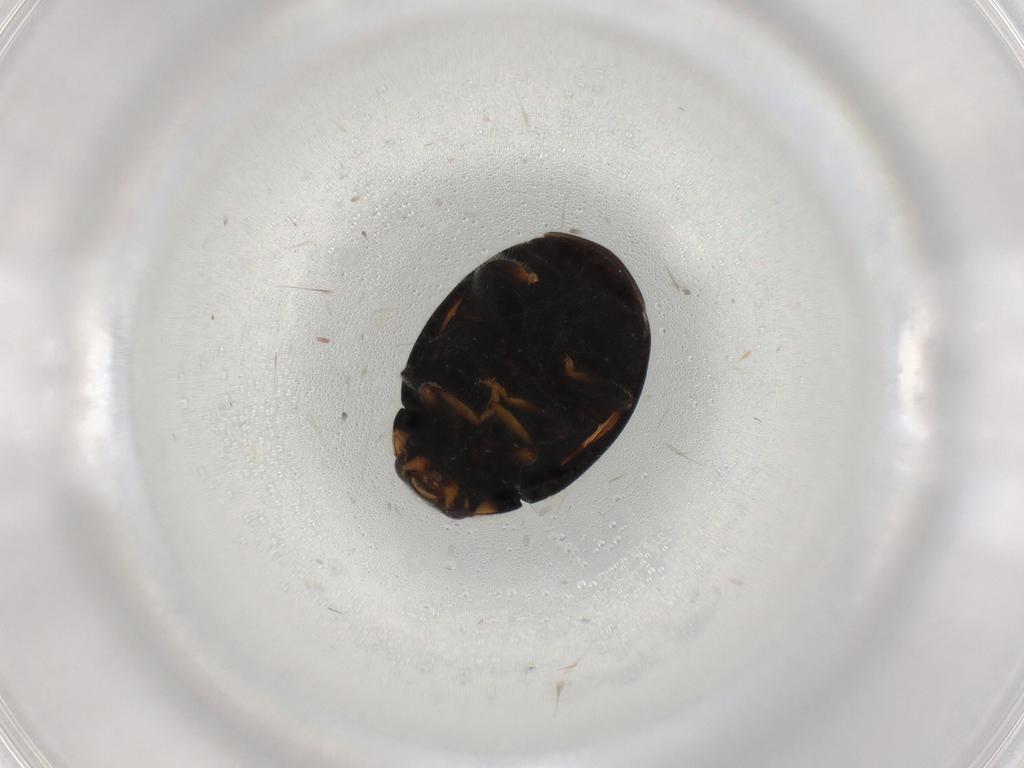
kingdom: Animalia
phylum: Arthropoda
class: Insecta
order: Coleoptera
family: Coccinellidae
